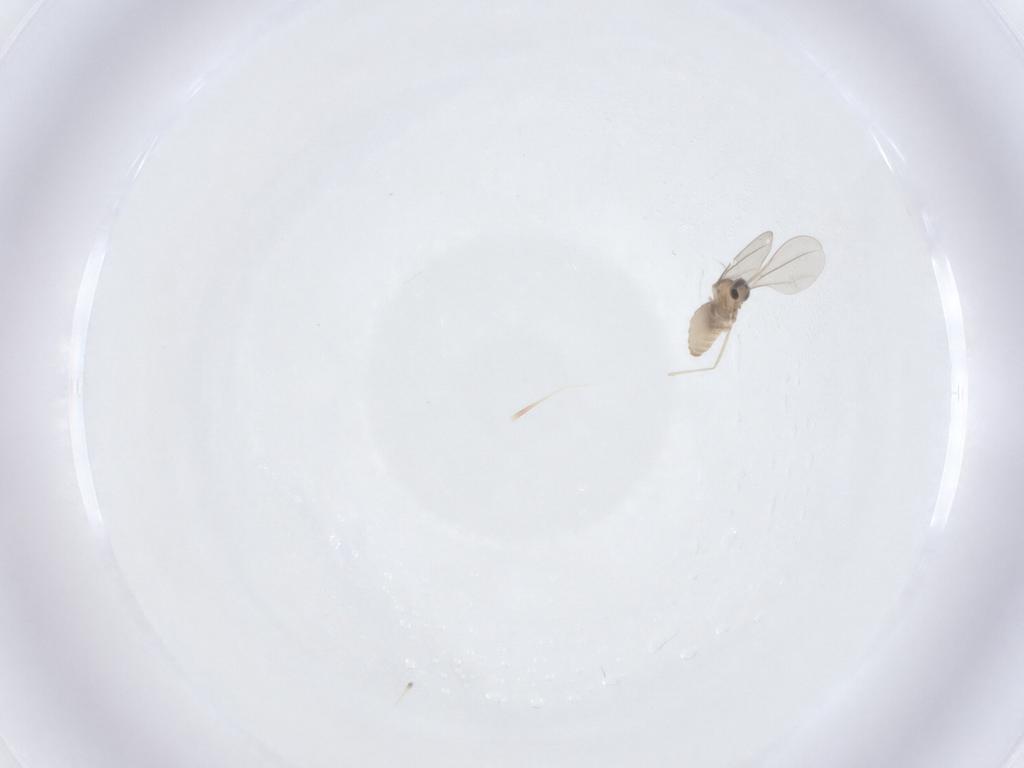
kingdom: Animalia
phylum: Arthropoda
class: Insecta
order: Diptera
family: Cecidomyiidae
